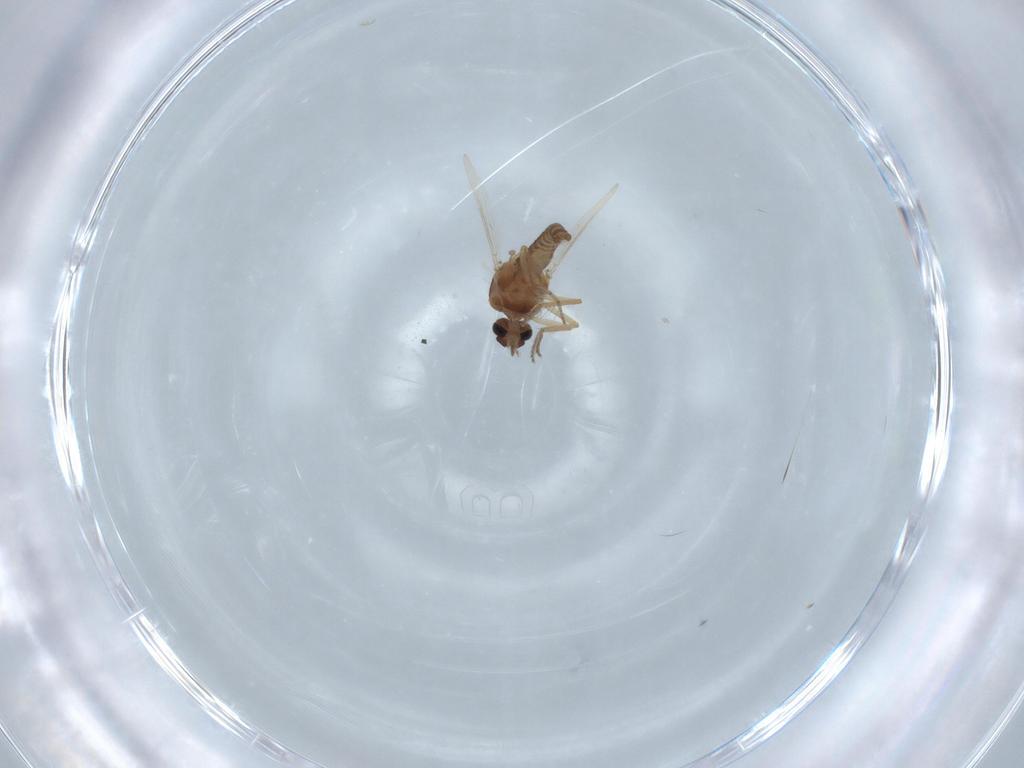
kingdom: Animalia
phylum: Arthropoda
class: Insecta
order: Diptera
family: Ceratopogonidae
